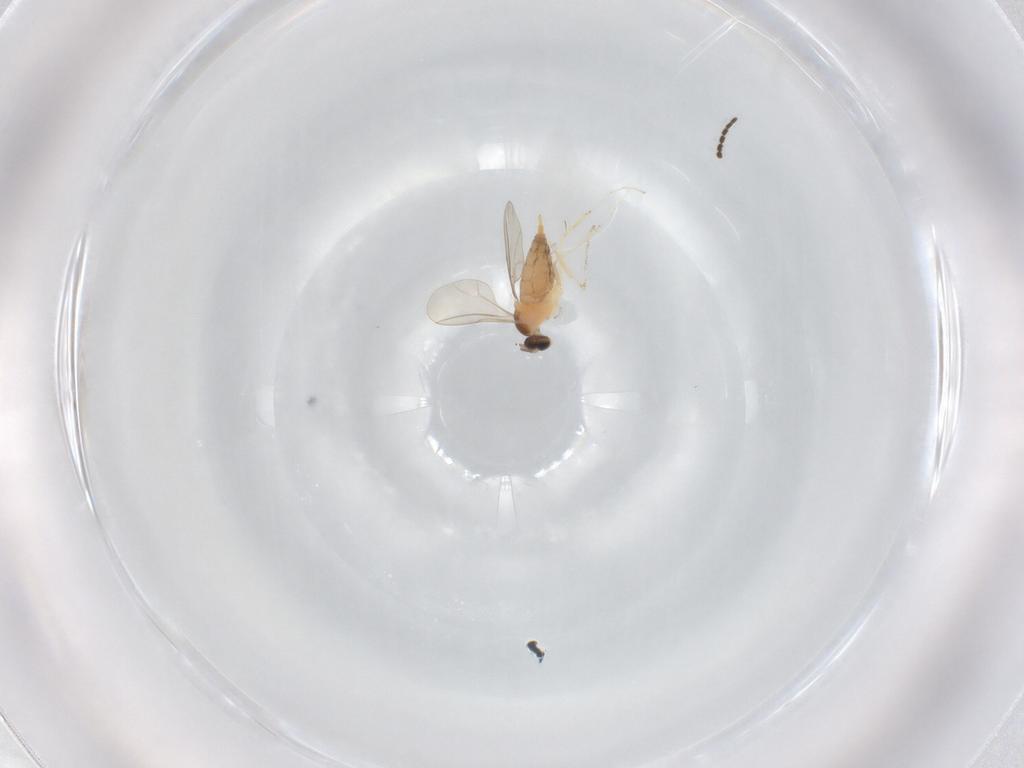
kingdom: Animalia
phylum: Arthropoda
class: Insecta
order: Diptera
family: Cecidomyiidae
